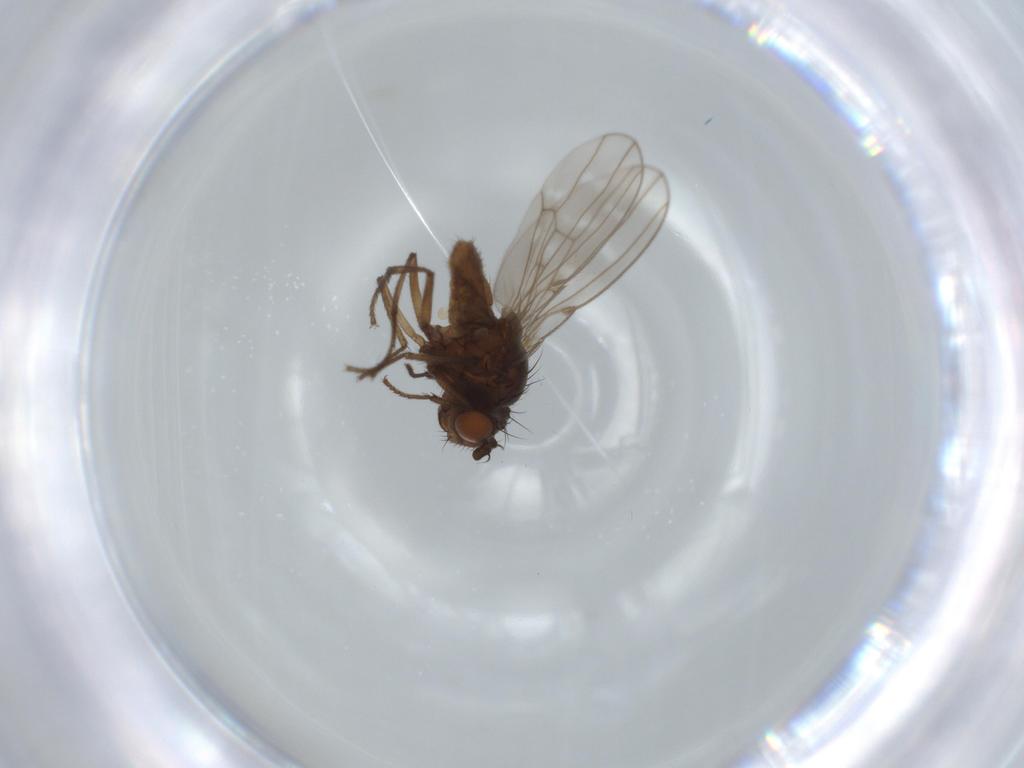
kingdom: Animalia
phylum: Arthropoda
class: Insecta
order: Diptera
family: Ephydridae
